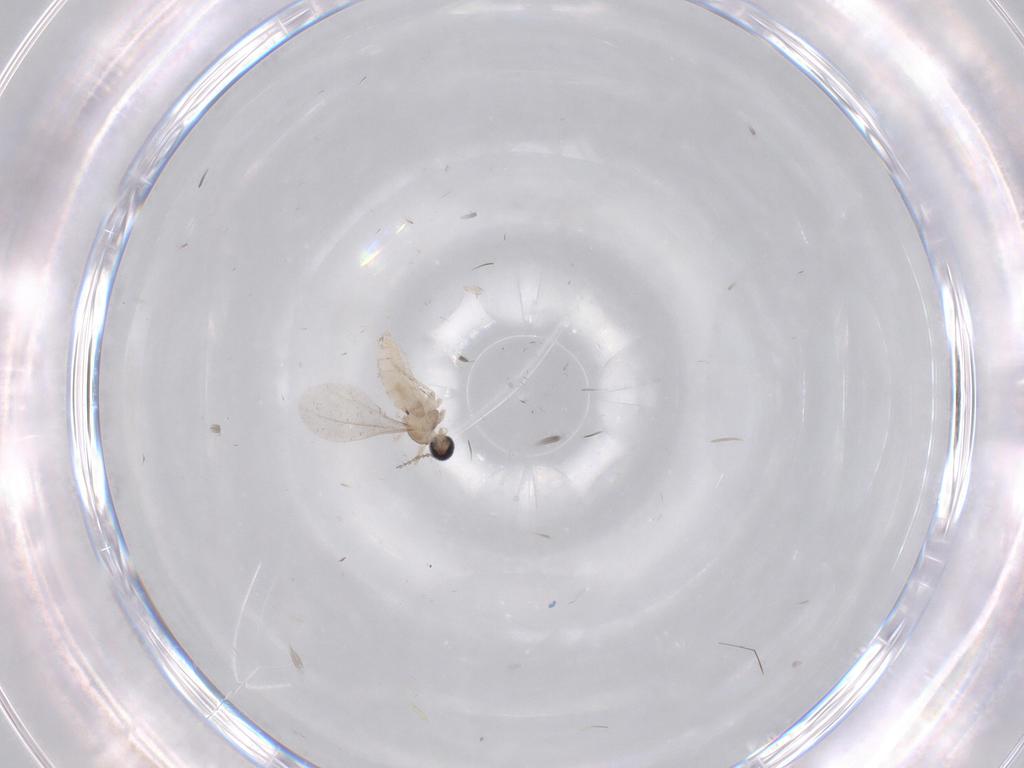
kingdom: Animalia
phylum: Arthropoda
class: Insecta
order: Diptera
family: Cecidomyiidae
